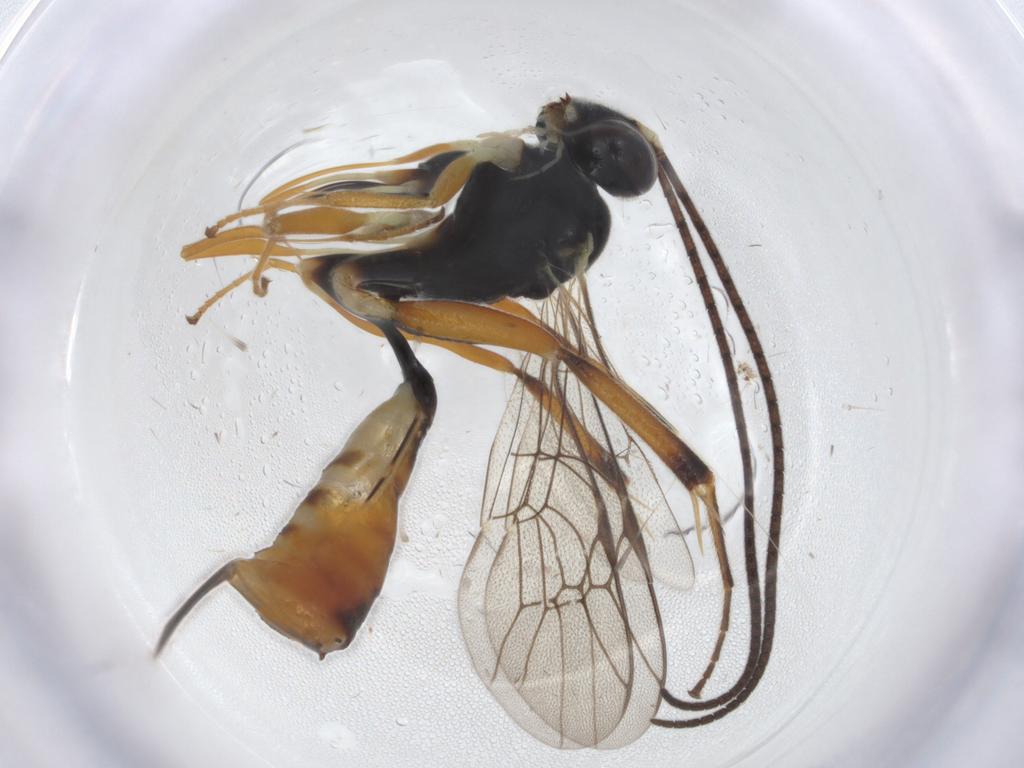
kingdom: Animalia
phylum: Arthropoda
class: Insecta
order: Hymenoptera
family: Ichneumonidae
